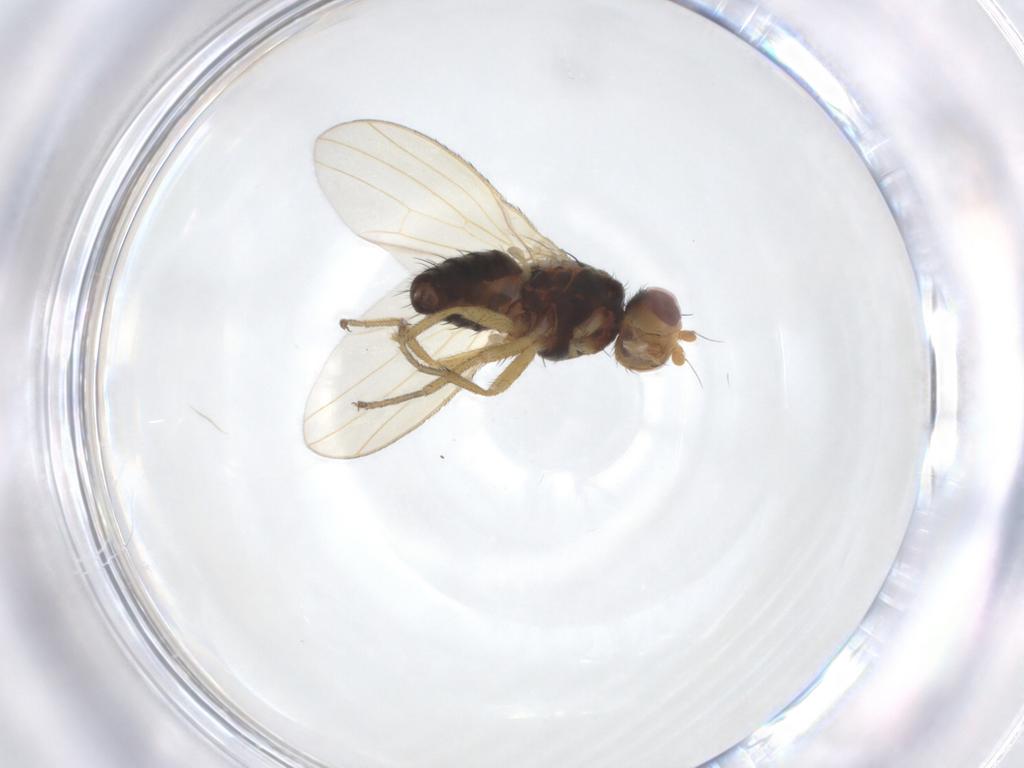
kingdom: Animalia
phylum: Arthropoda
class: Insecta
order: Diptera
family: Heleomyzidae
